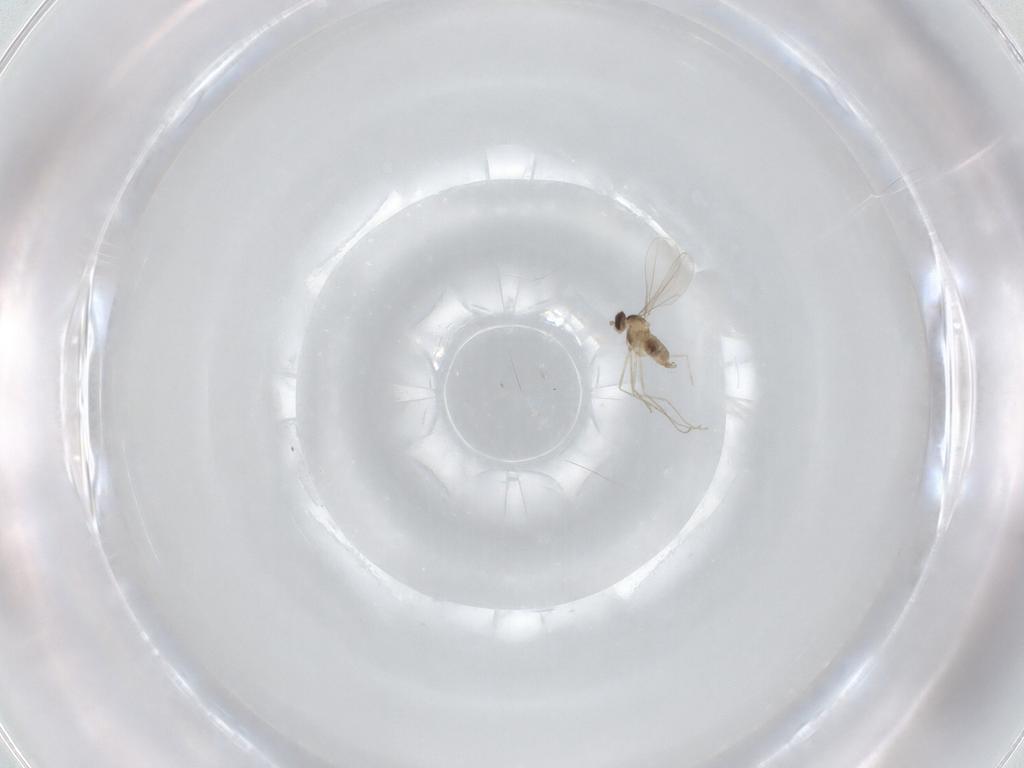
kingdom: Animalia
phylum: Arthropoda
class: Insecta
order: Diptera
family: Cecidomyiidae
